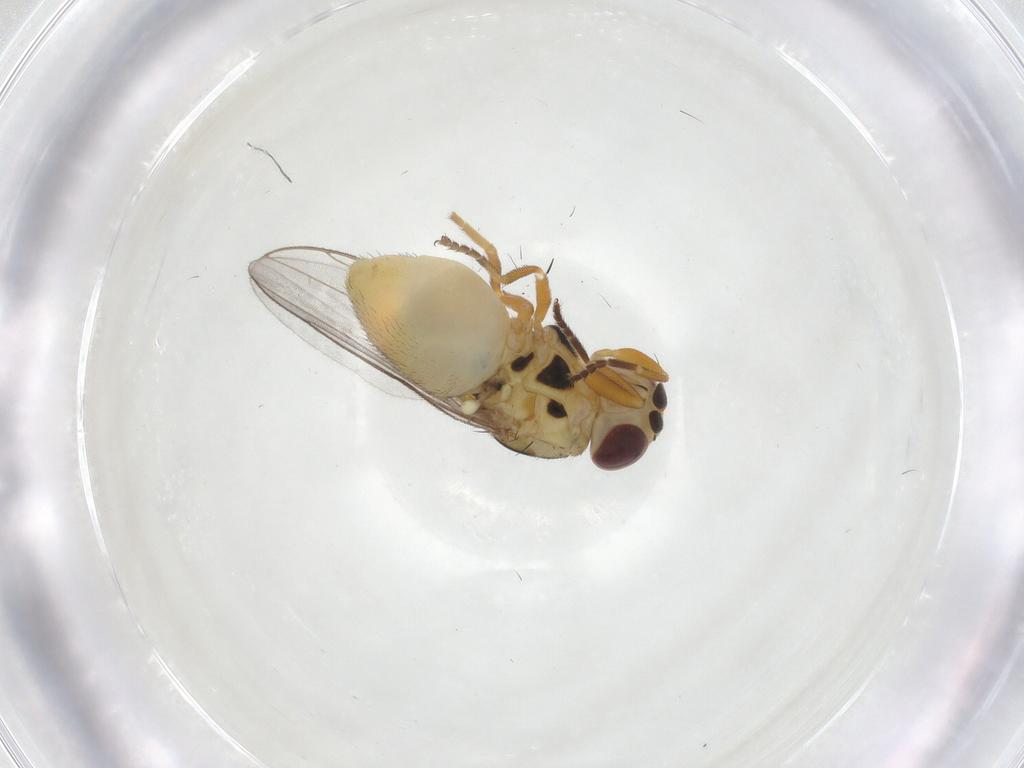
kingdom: Animalia
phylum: Arthropoda
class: Insecta
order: Diptera
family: Chloropidae
